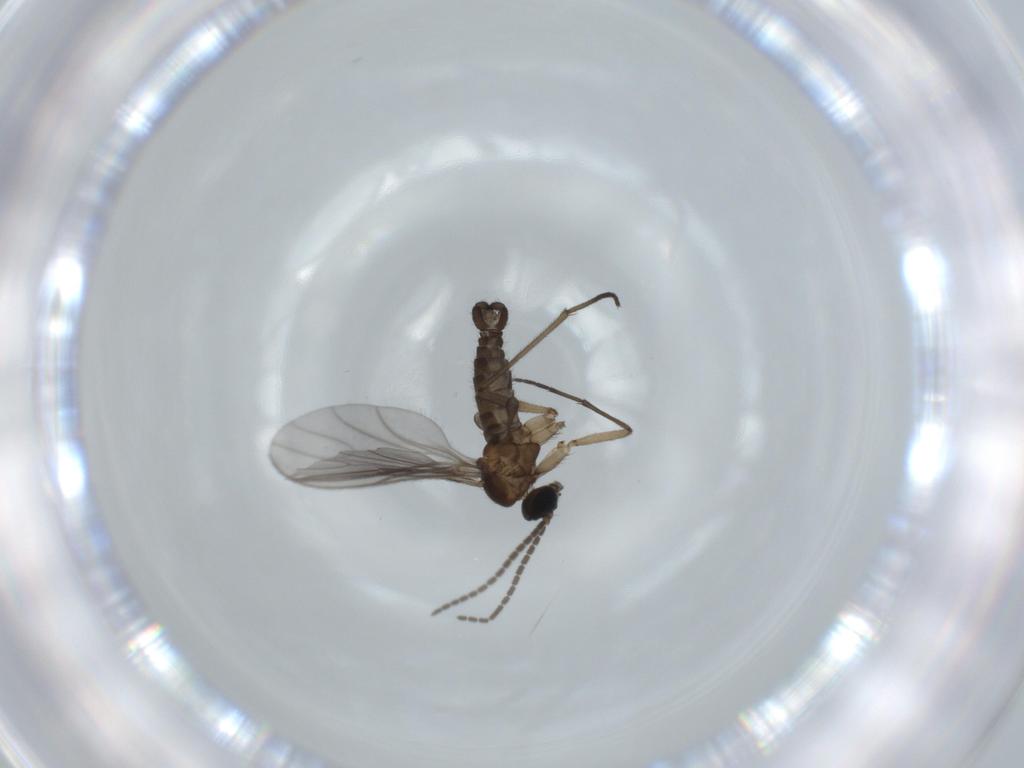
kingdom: Animalia
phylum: Arthropoda
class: Insecta
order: Diptera
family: Sciaridae
